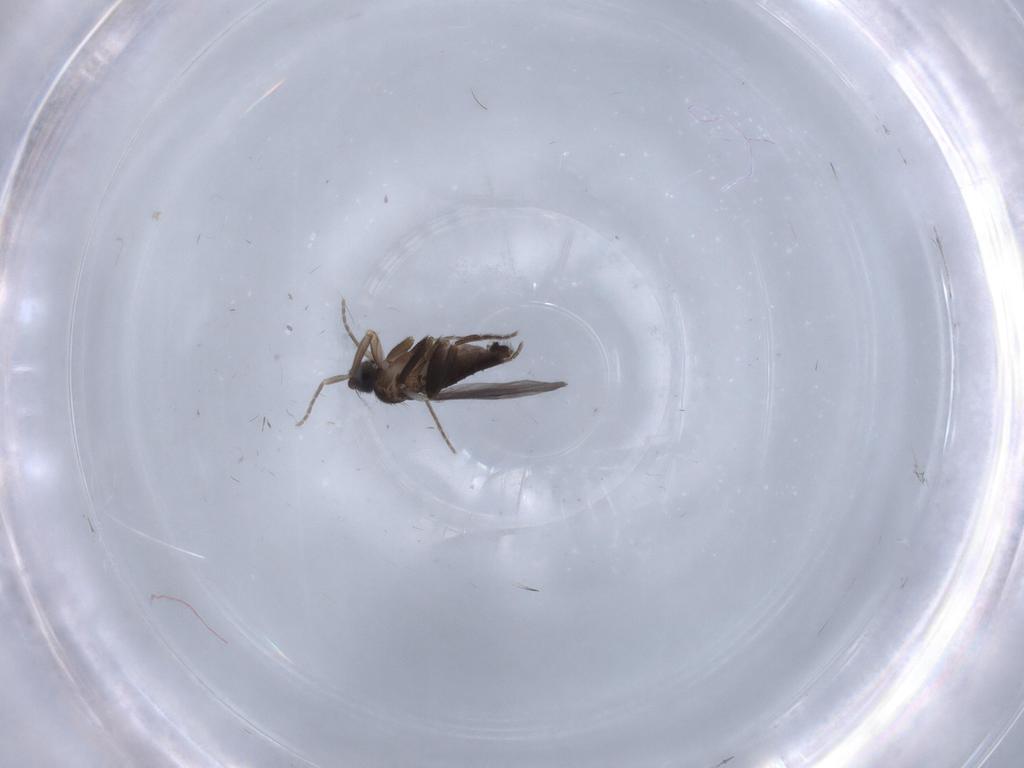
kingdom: Animalia
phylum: Arthropoda
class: Insecta
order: Diptera
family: Phoridae
